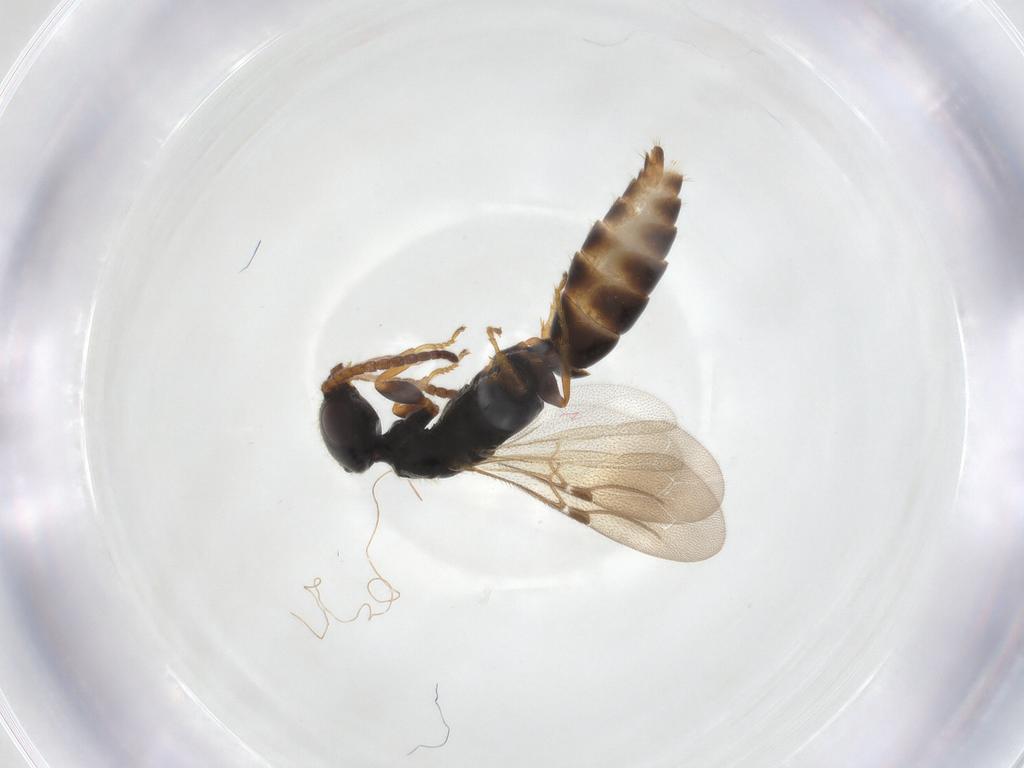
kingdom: Animalia
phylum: Arthropoda
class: Insecta
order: Hymenoptera
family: Bethylidae
